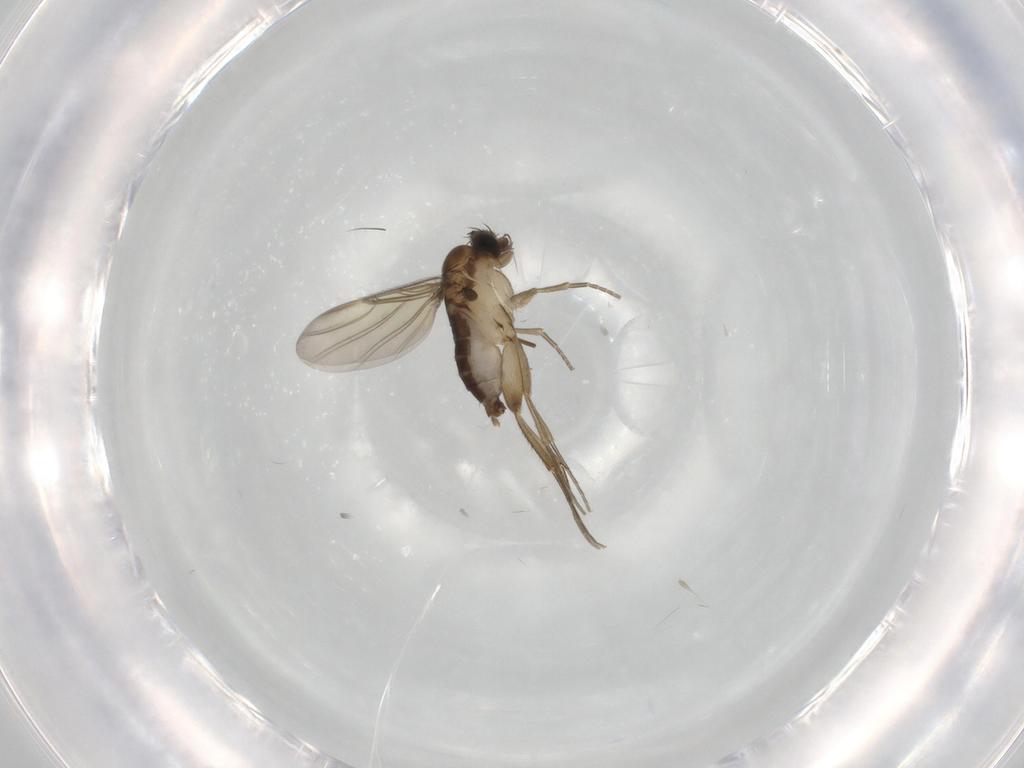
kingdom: Animalia
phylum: Arthropoda
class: Insecta
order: Diptera
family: Phoridae
